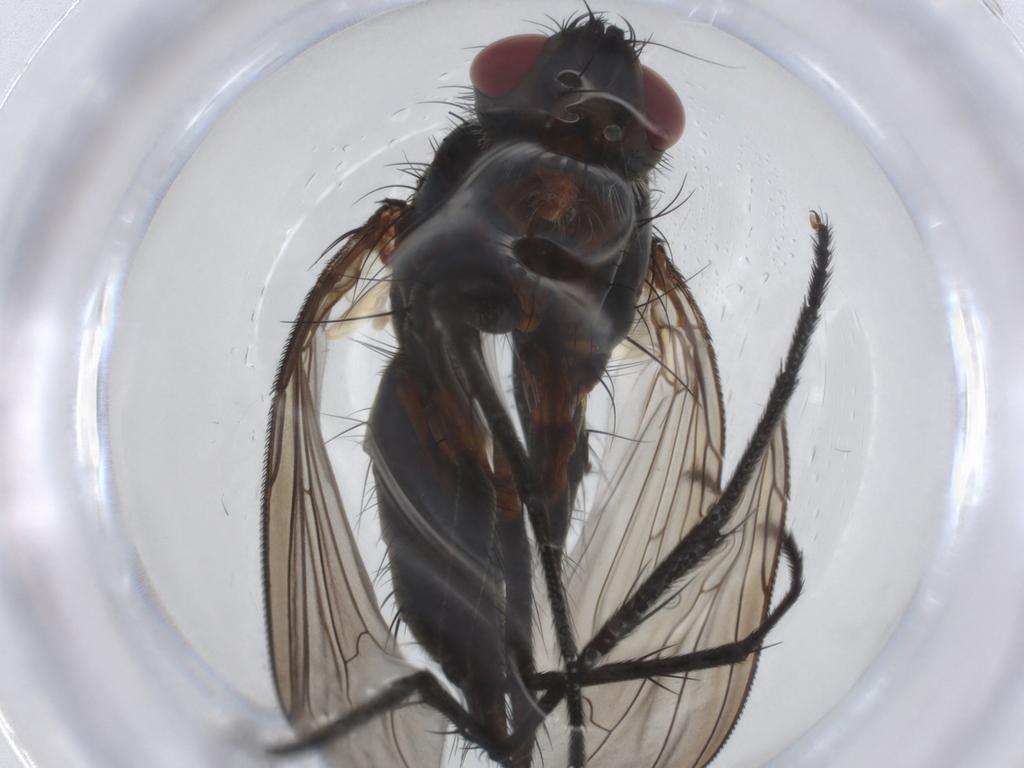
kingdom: Animalia
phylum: Arthropoda
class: Insecta
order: Diptera
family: Tachinidae
